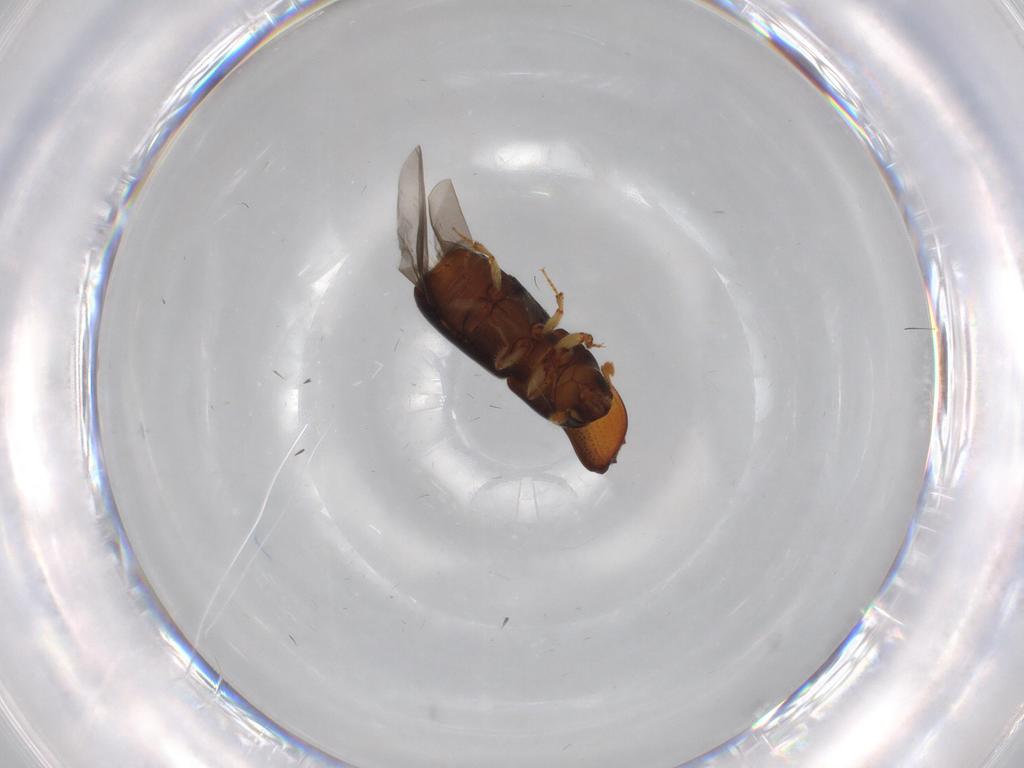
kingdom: Animalia
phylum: Arthropoda
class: Insecta
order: Coleoptera
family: Curculionidae
